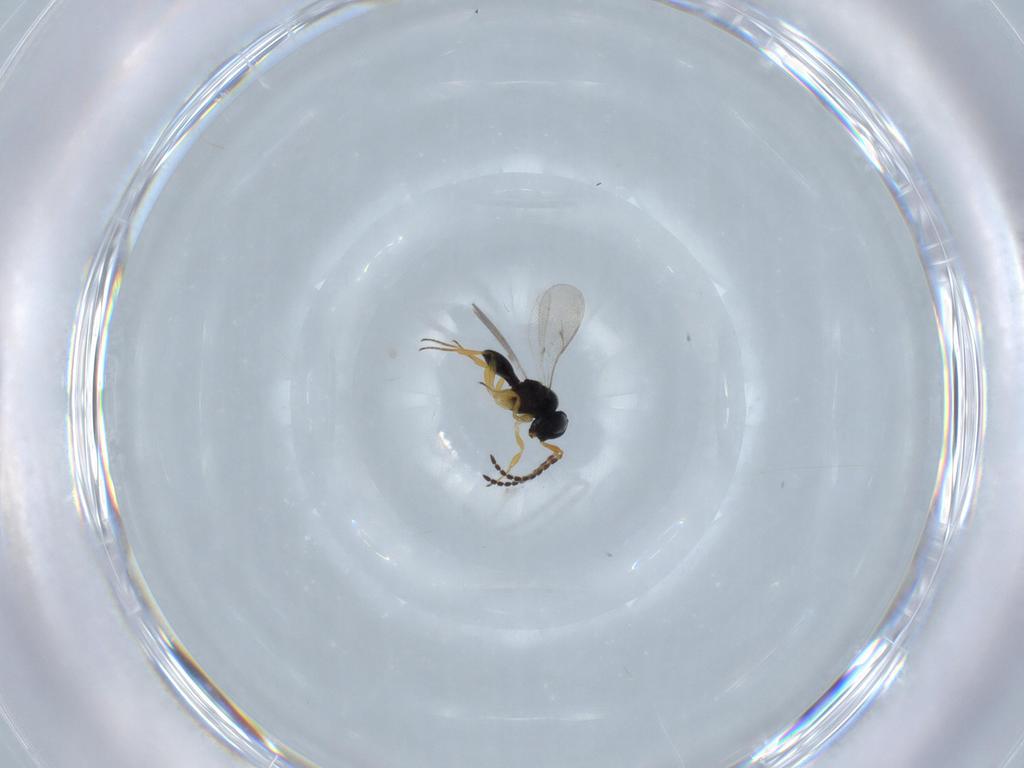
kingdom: Animalia
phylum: Arthropoda
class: Insecta
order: Hymenoptera
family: Scelionidae
